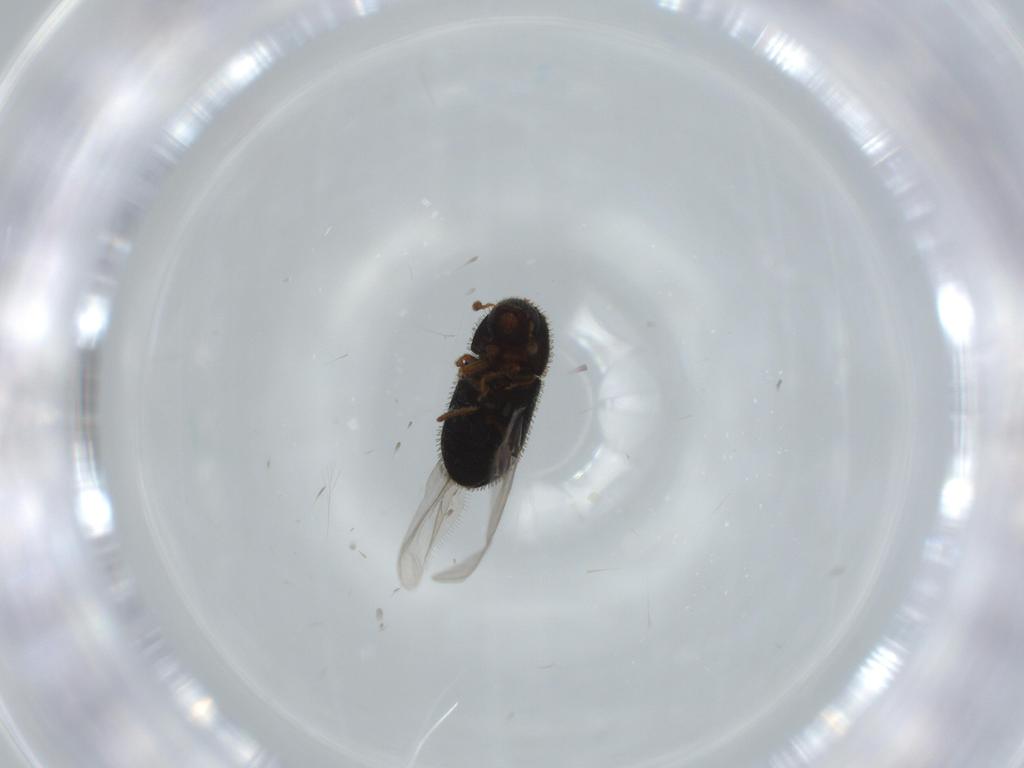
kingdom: Animalia
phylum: Arthropoda
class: Insecta
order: Coleoptera
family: Curculionidae
